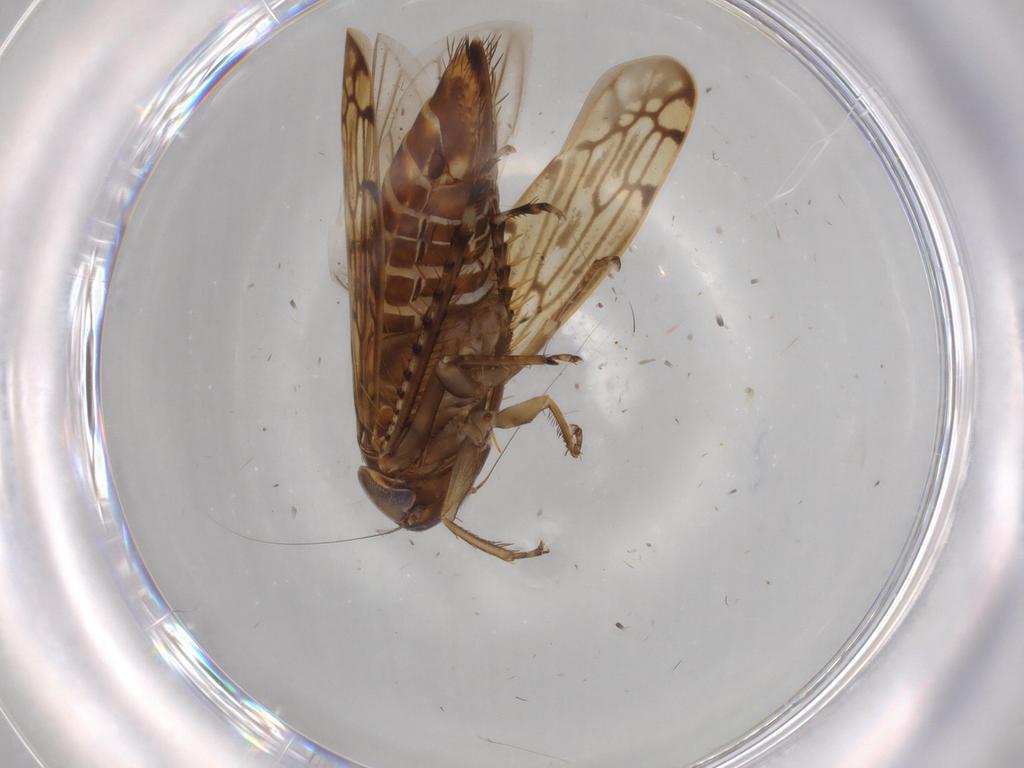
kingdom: Animalia
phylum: Arthropoda
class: Insecta
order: Hemiptera
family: Cicadellidae
